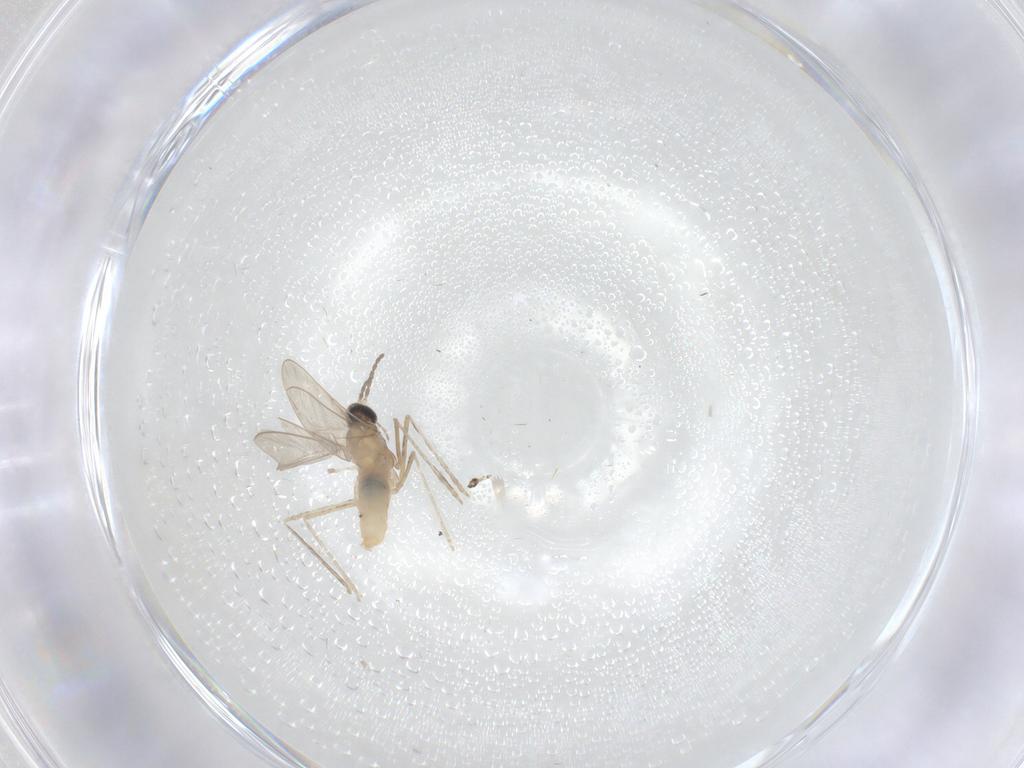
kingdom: Animalia
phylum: Arthropoda
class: Insecta
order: Diptera
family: Cecidomyiidae
